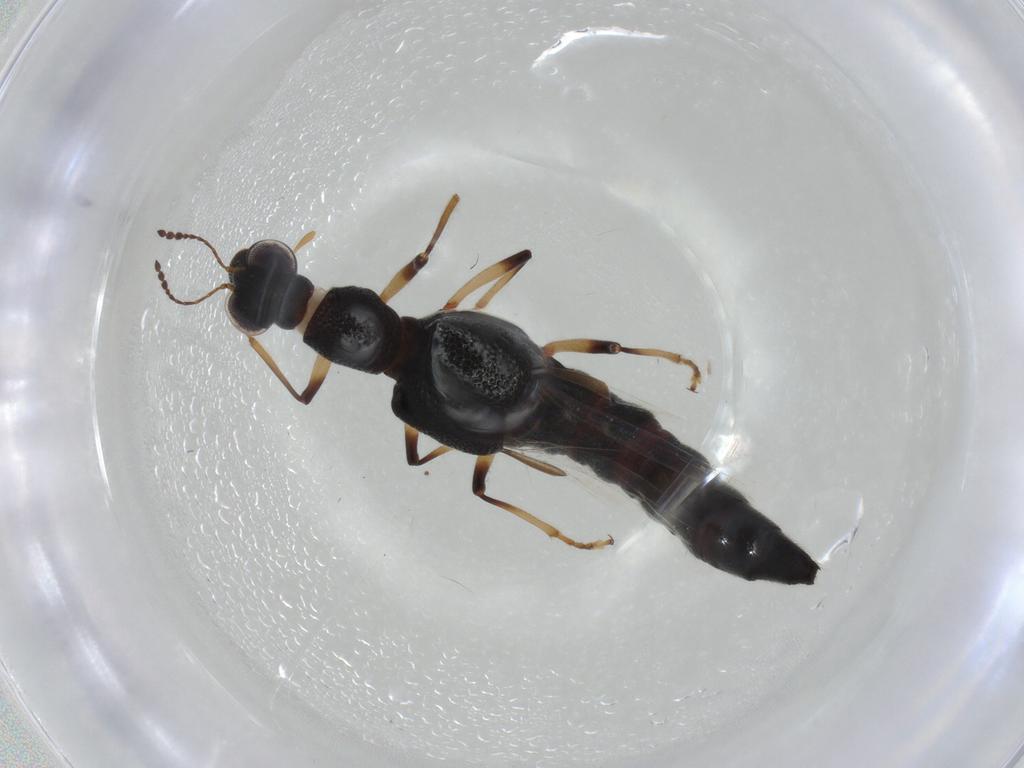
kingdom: Animalia
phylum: Arthropoda
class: Insecta
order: Coleoptera
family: Staphylinidae
